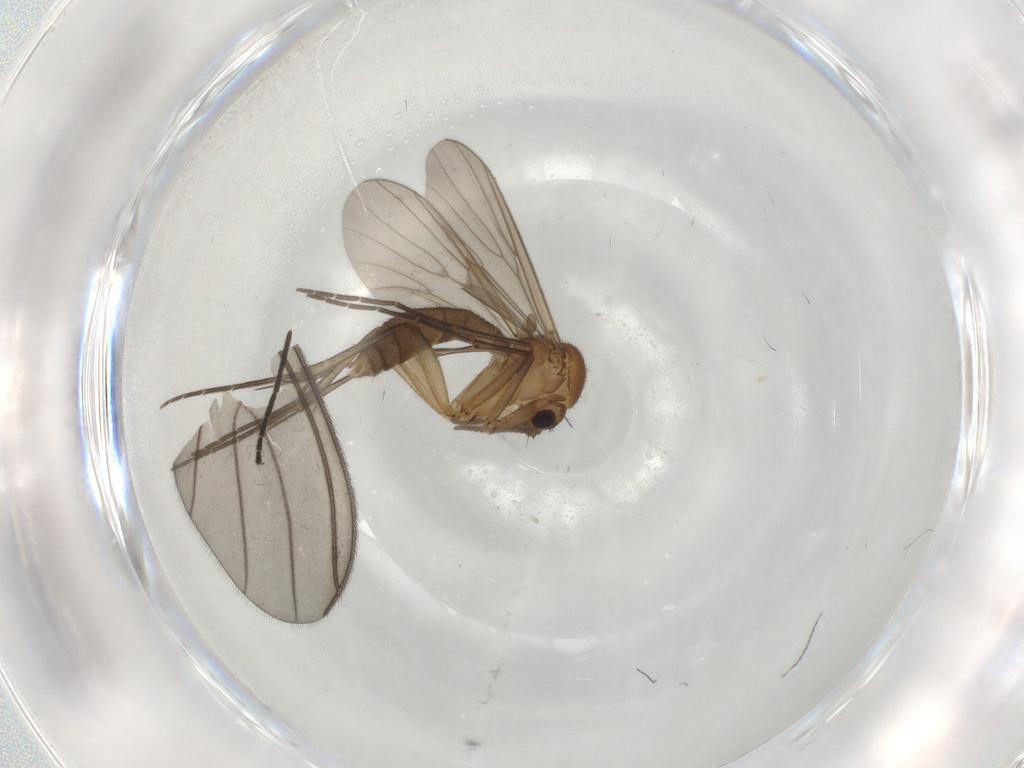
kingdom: Animalia
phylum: Arthropoda
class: Insecta
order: Diptera
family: Mycetophilidae
